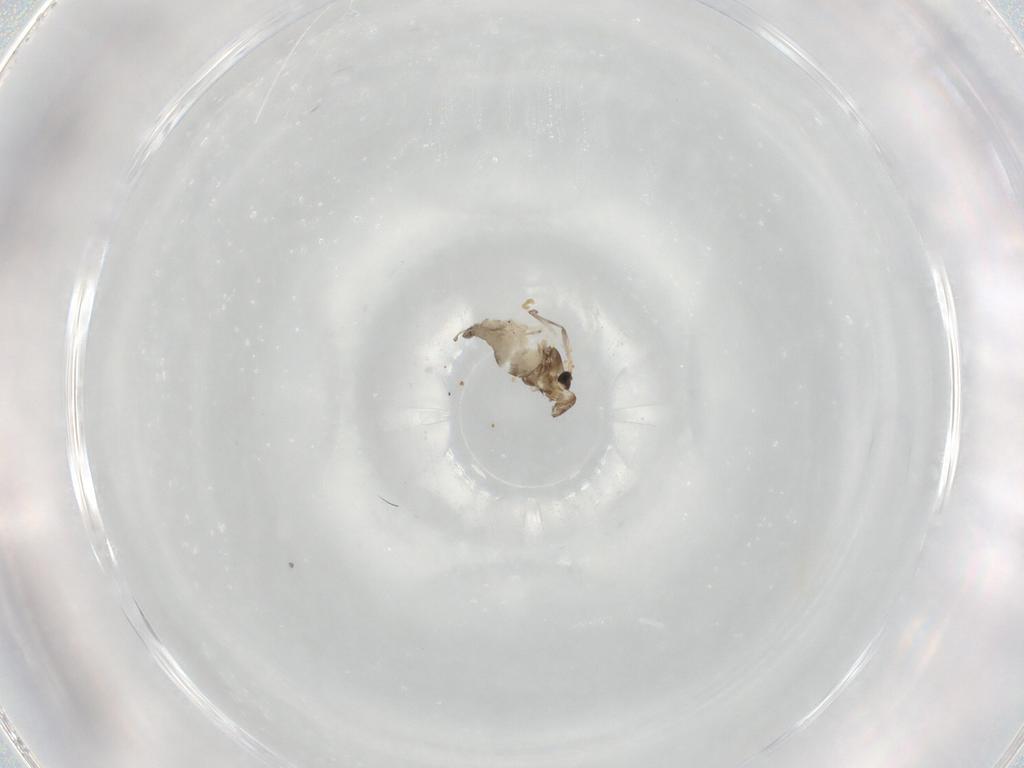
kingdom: Animalia
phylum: Arthropoda
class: Insecta
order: Diptera
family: Chironomidae
